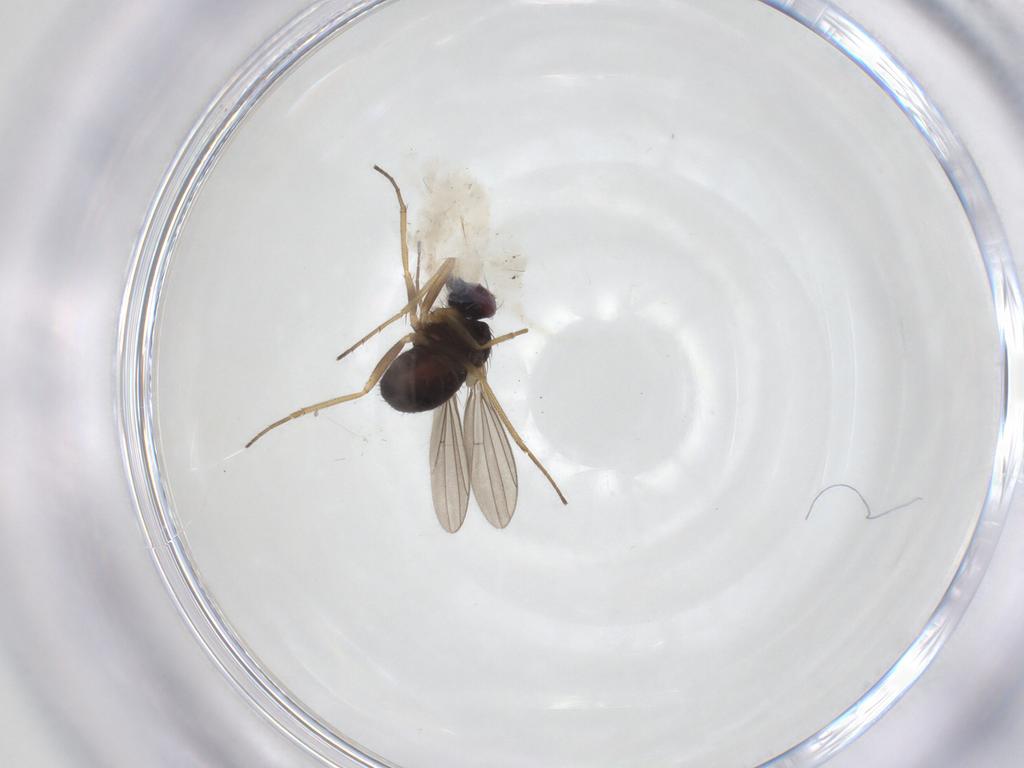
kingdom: Animalia
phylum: Arthropoda
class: Insecta
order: Diptera
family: Dolichopodidae
